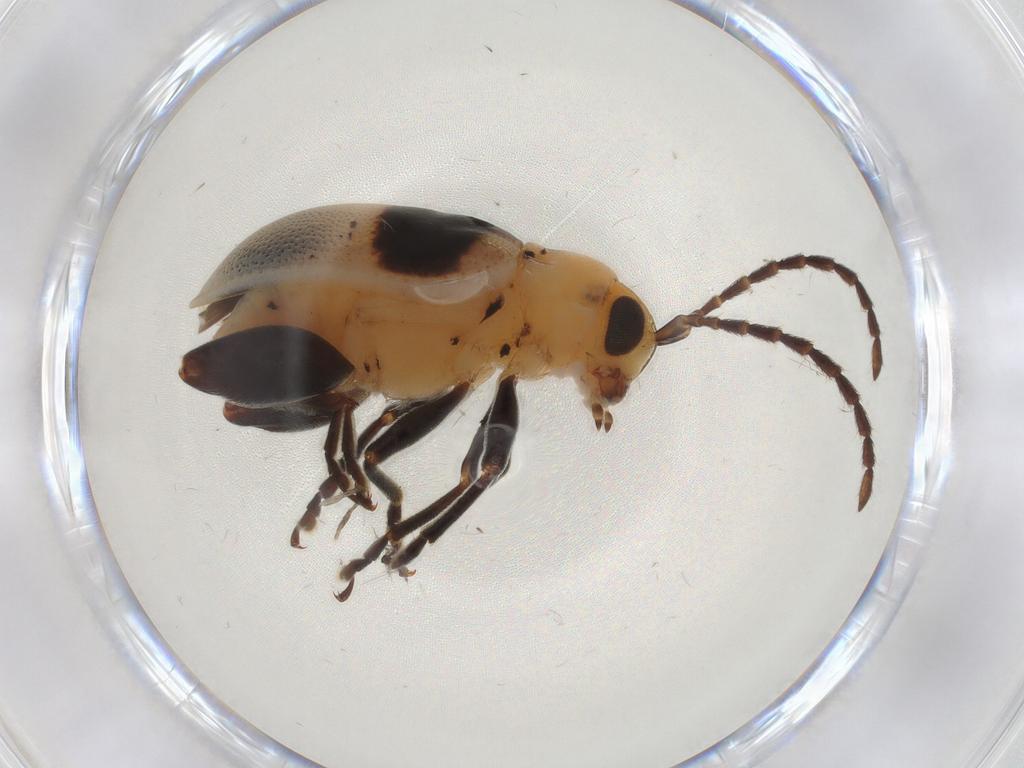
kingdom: Animalia
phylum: Arthropoda
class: Insecta
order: Coleoptera
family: Chrysomelidae
